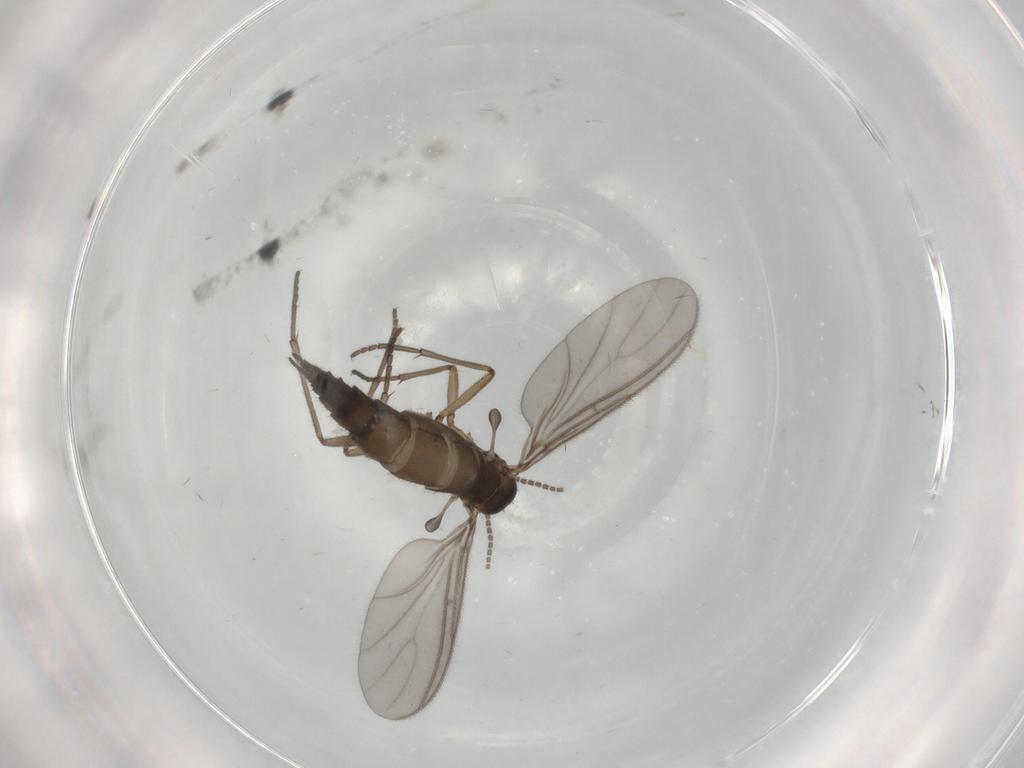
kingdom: Animalia
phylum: Arthropoda
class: Insecta
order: Diptera
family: Sciaridae
